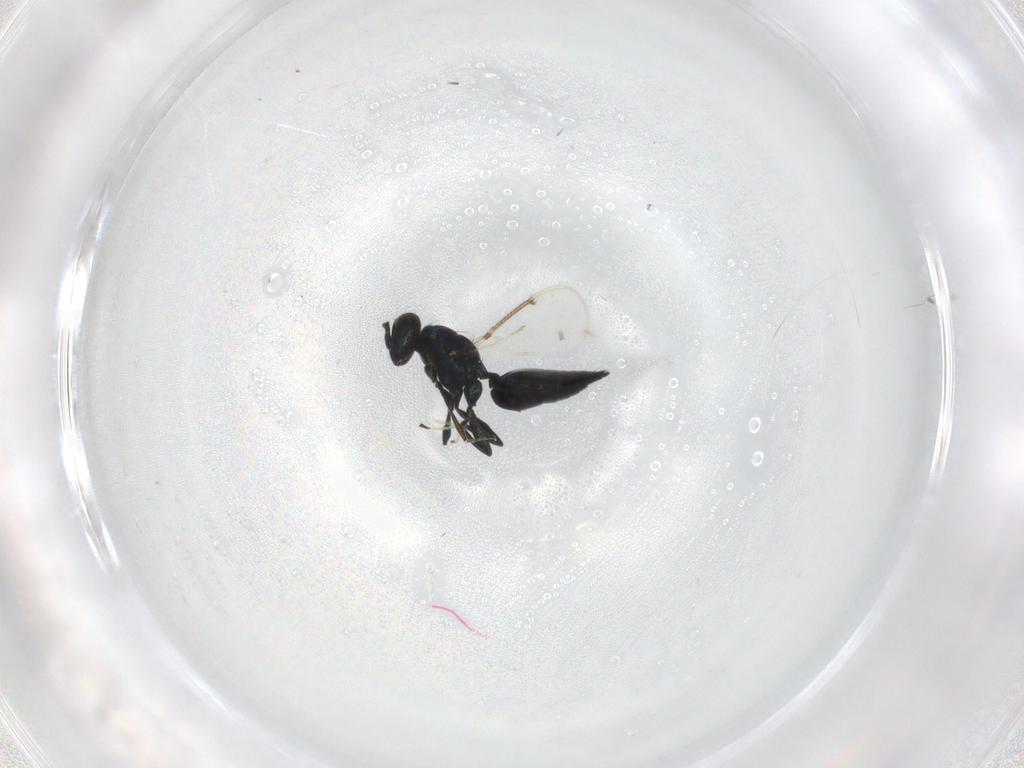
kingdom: Animalia
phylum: Arthropoda
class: Insecta
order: Hymenoptera
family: Eulophidae
